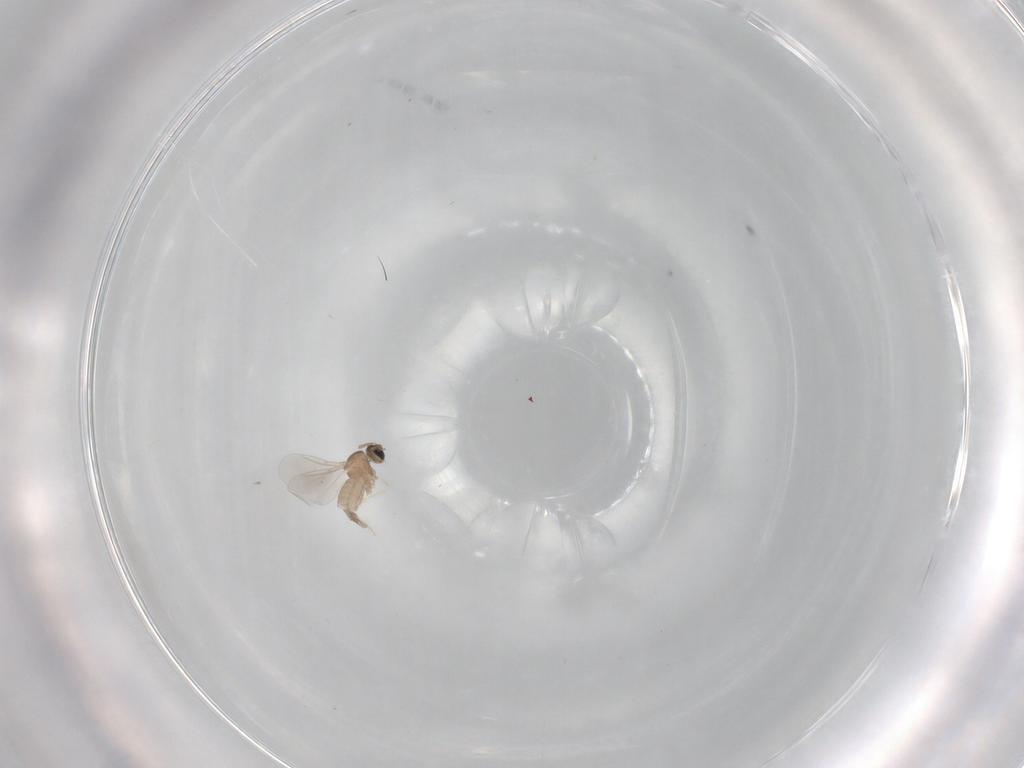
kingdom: Animalia
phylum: Arthropoda
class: Insecta
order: Diptera
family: Cecidomyiidae
